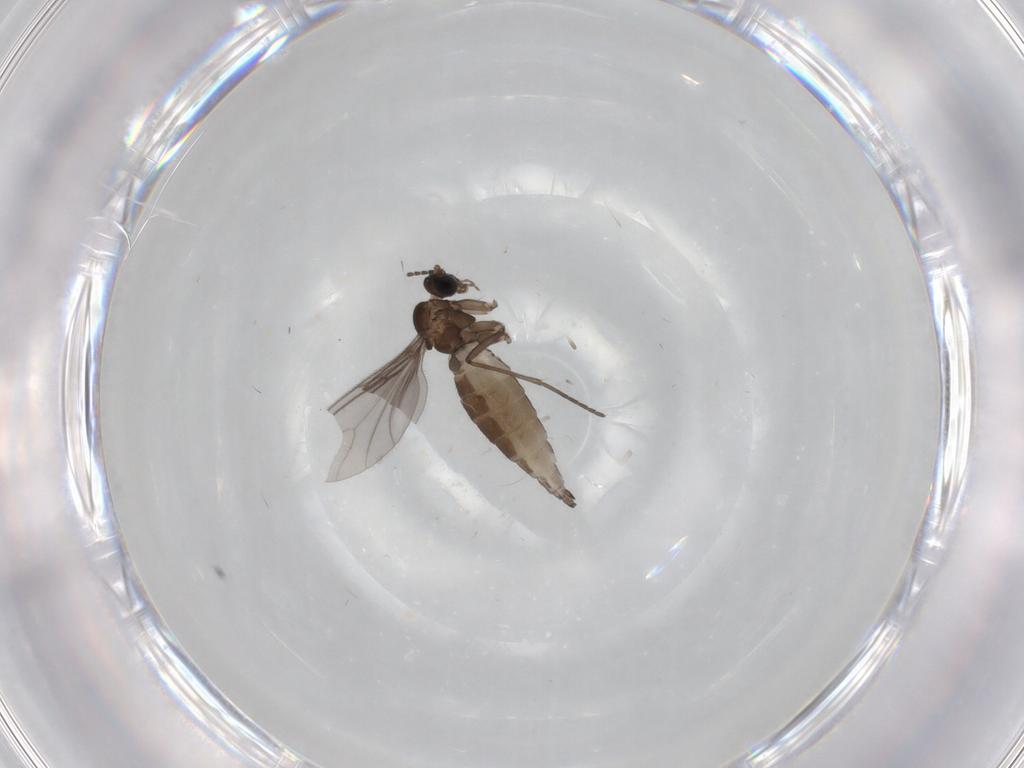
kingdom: Animalia
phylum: Arthropoda
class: Insecta
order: Diptera
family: Sciaridae
